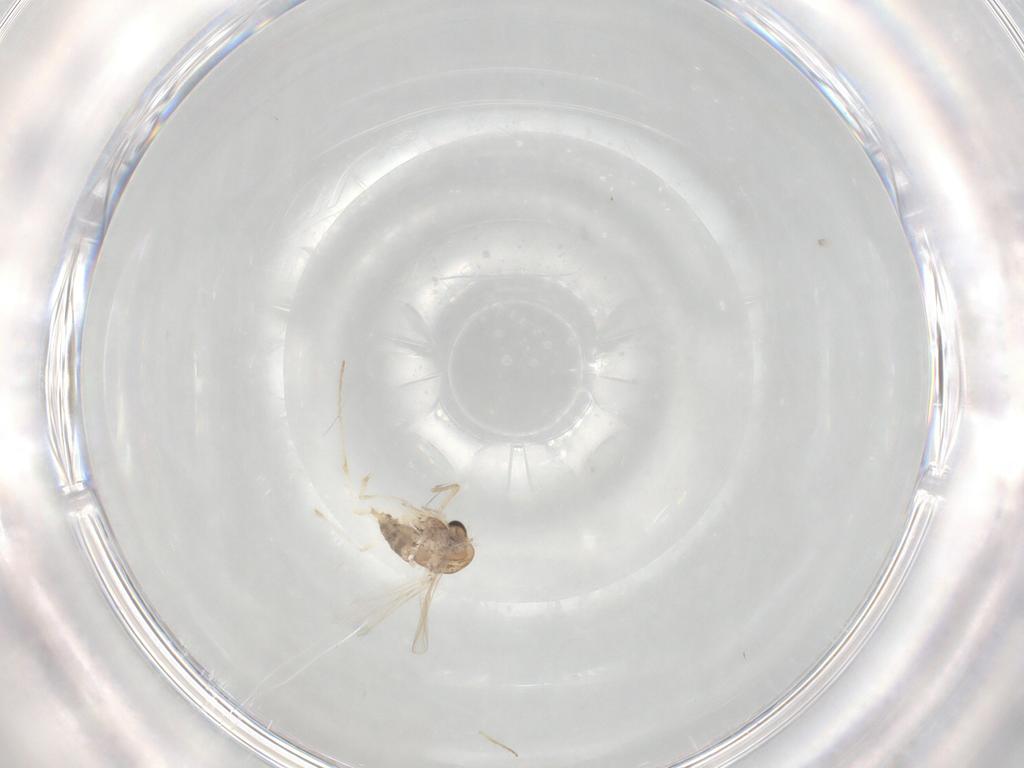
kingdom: Animalia
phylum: Arthropoda
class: Insecta
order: Diptera
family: Chironomidae
